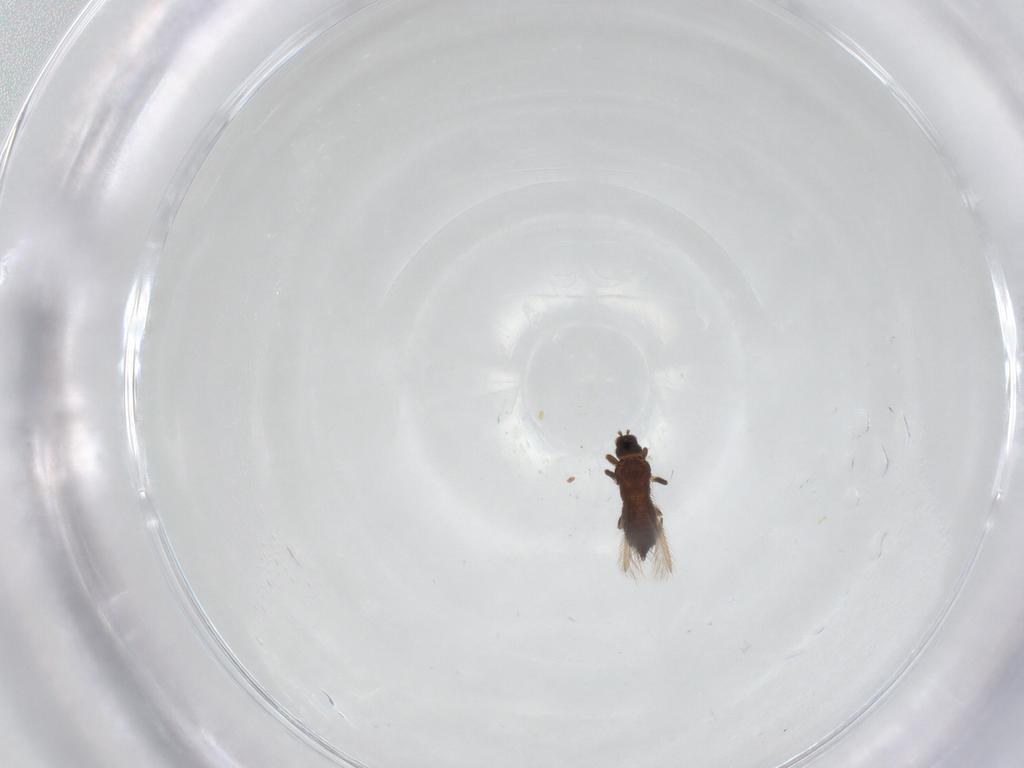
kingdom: Animalia
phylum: Arthropoda
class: Insecta
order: Thysanoptera
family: Thripidae
